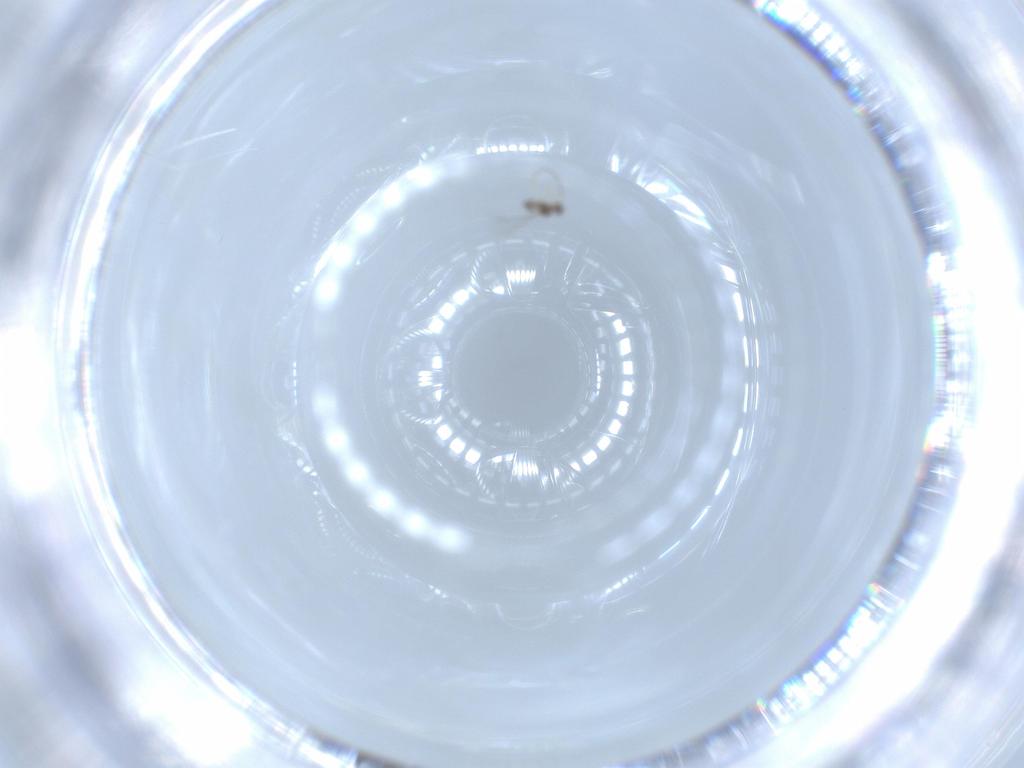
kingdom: Animalia
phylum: Arthropoda
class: Insecta
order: Hymenoptera
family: Mymaridae
